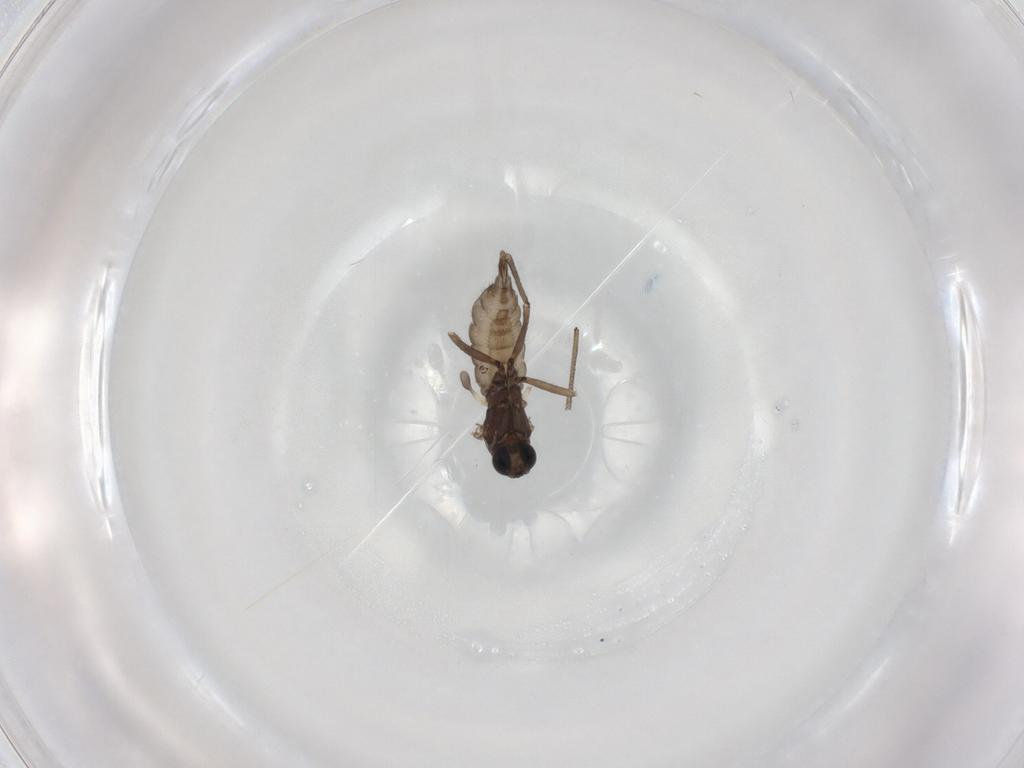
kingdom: Animalia
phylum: Arthropoda
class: Insecta
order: Diptera
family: Sciaridae
